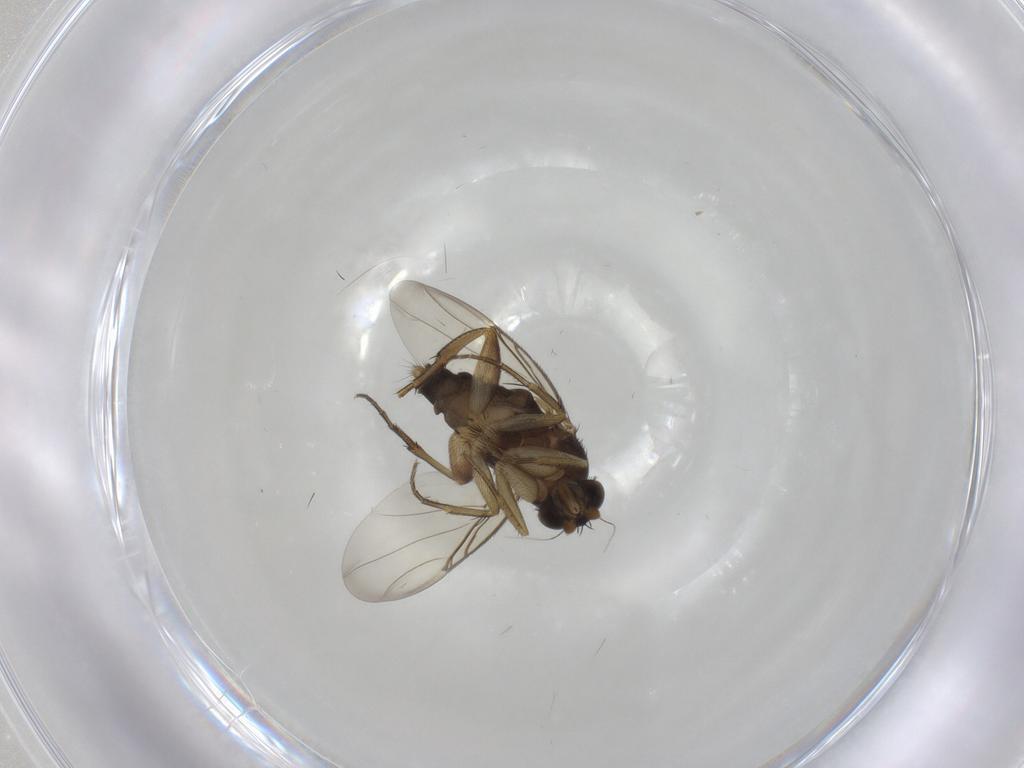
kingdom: Animalia
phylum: Arthropoda
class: Insecta
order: Diptera
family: Phoridae
